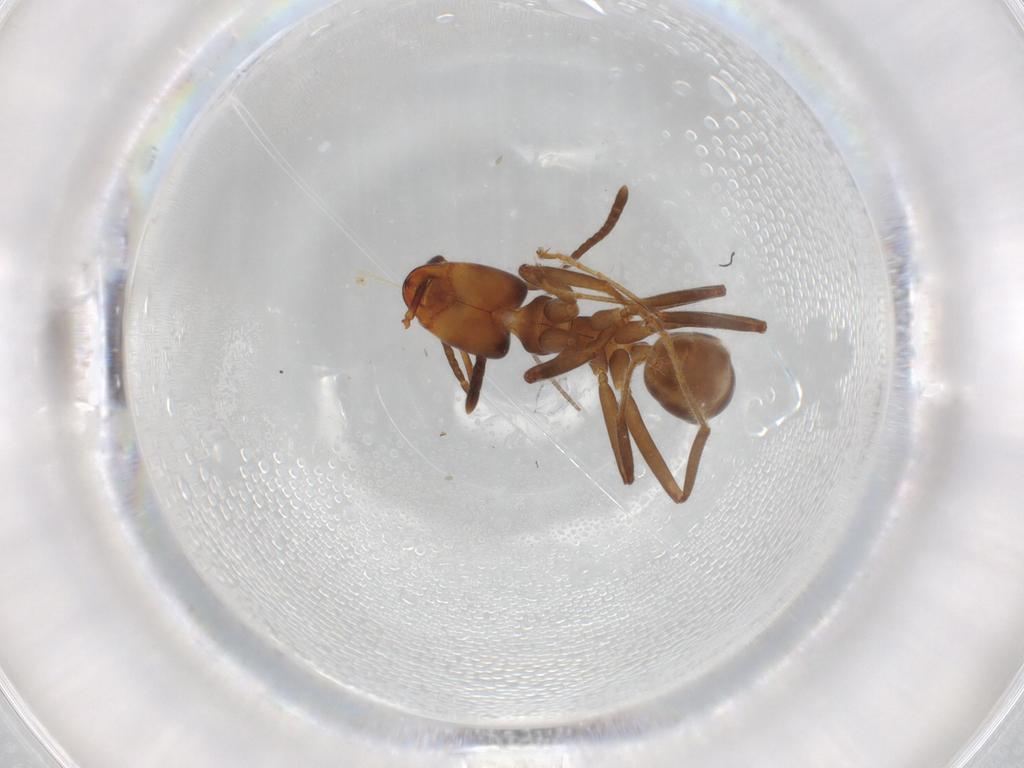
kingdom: Animalia
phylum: Arthropoda
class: Insecta
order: Hymenoptera
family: Formicidae
